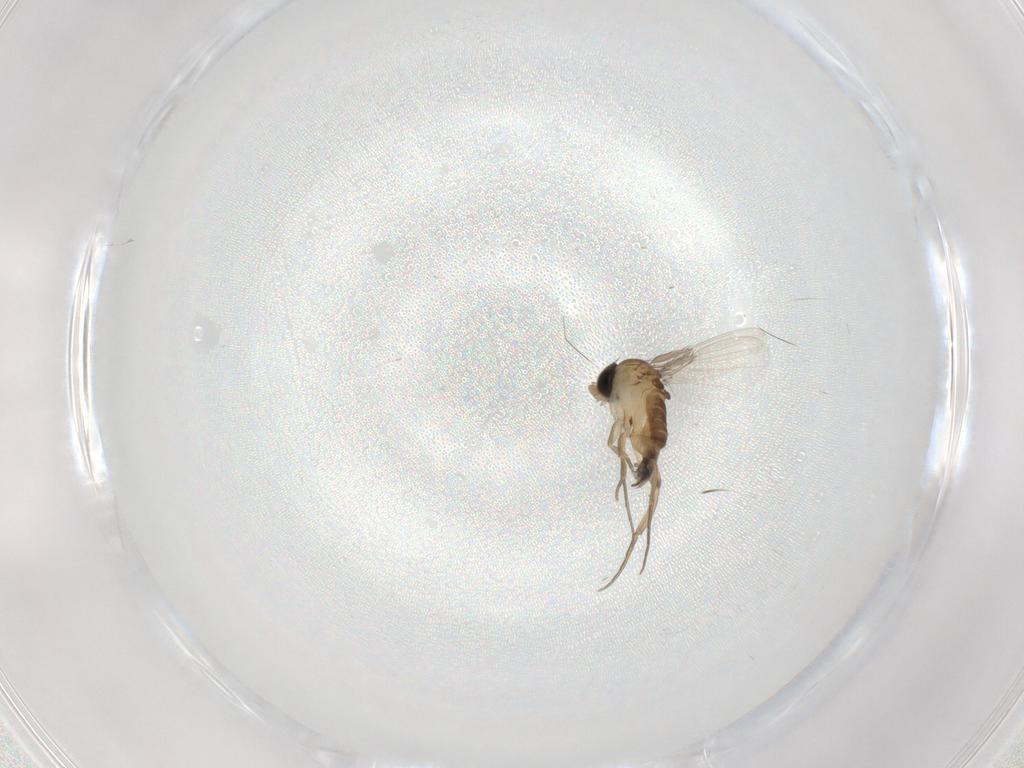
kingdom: Animalia
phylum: Arthropoda
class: Insecta
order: Diptera
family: Phoridae
